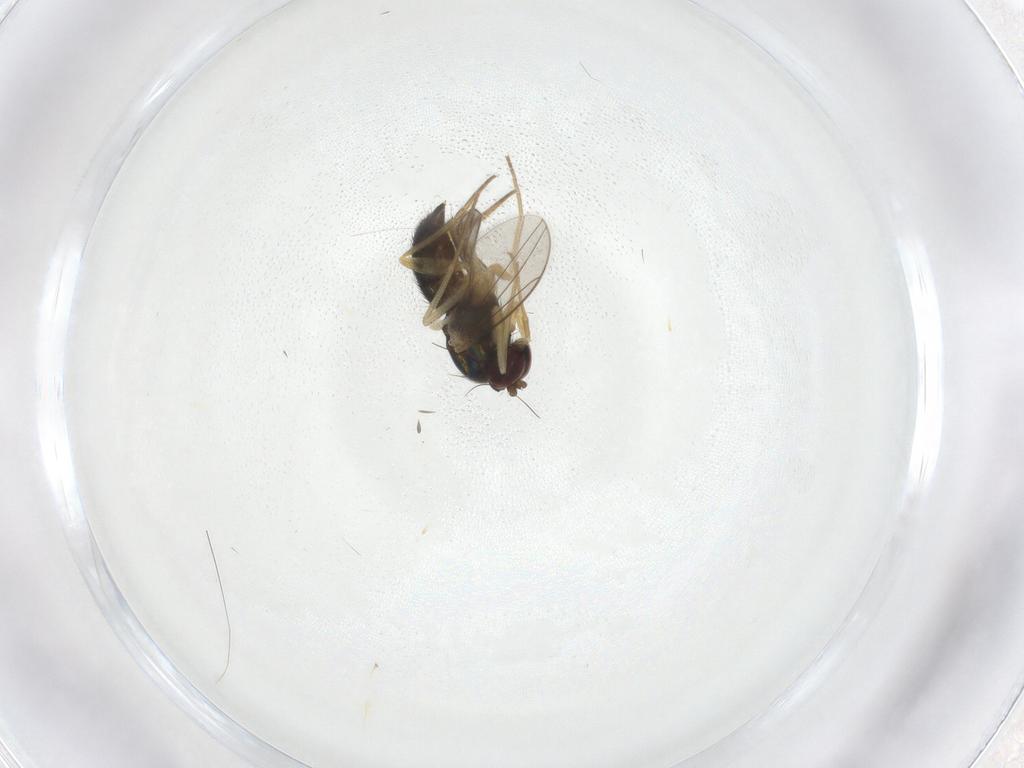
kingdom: Animalia
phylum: Arthropoda
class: Insecta
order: Diptera
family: Dolichopodidae
